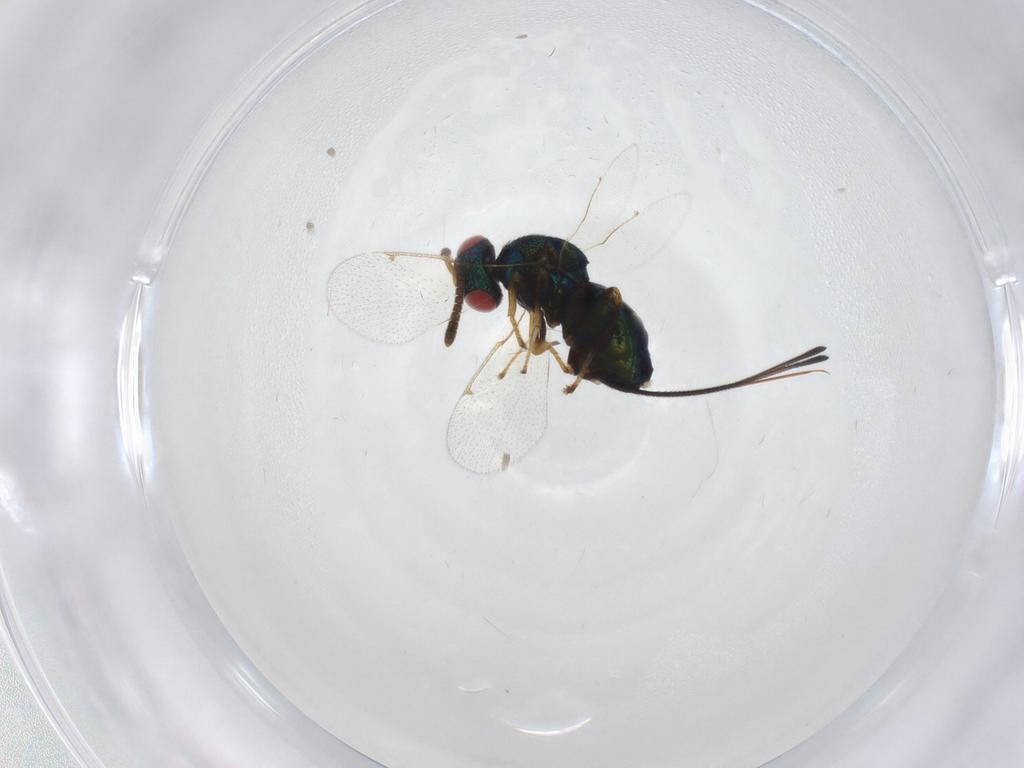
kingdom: Animalia
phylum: Arthropoda
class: Insecta
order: Hymenoptera
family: Torymidae
